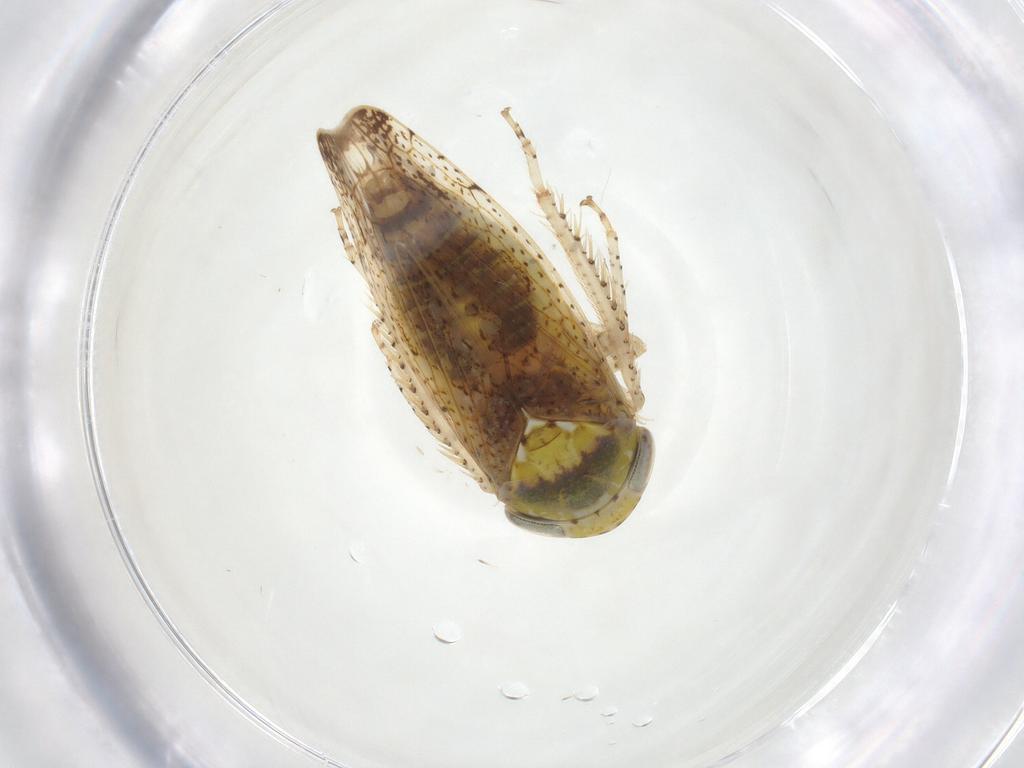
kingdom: Animalia
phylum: Arthropoda
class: Insecta
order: Hemiptera
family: Cicadellidae
